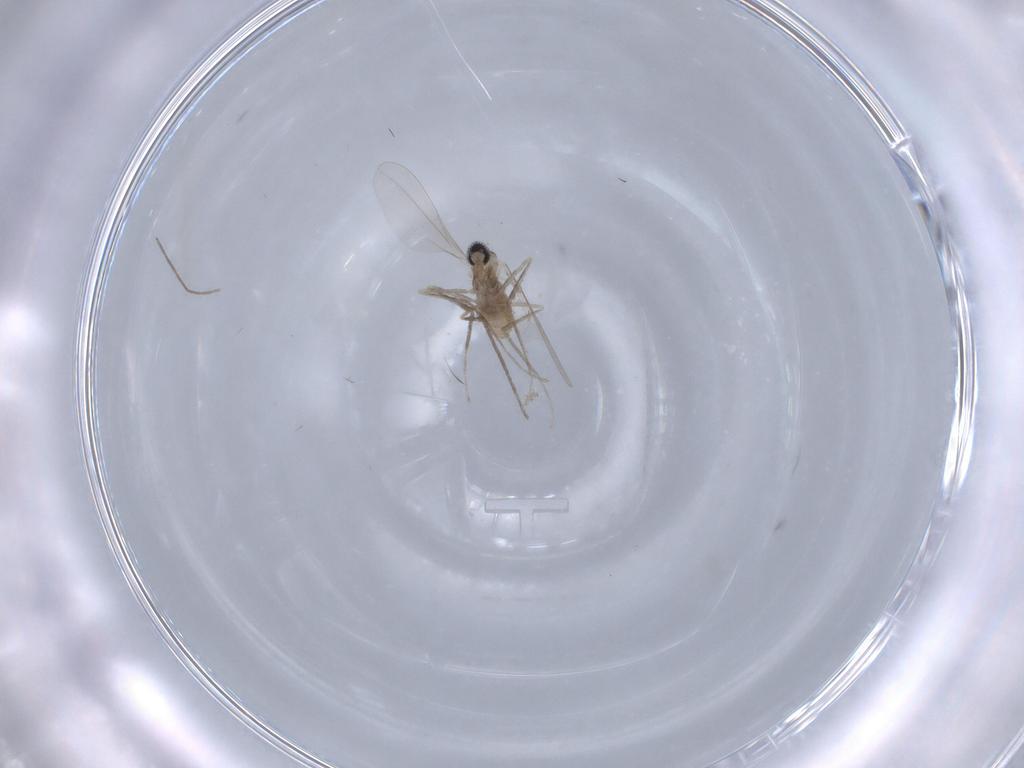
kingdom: Animalia
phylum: Arthropoda
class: Insecta
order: Diptera
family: Cecidomyiidae
